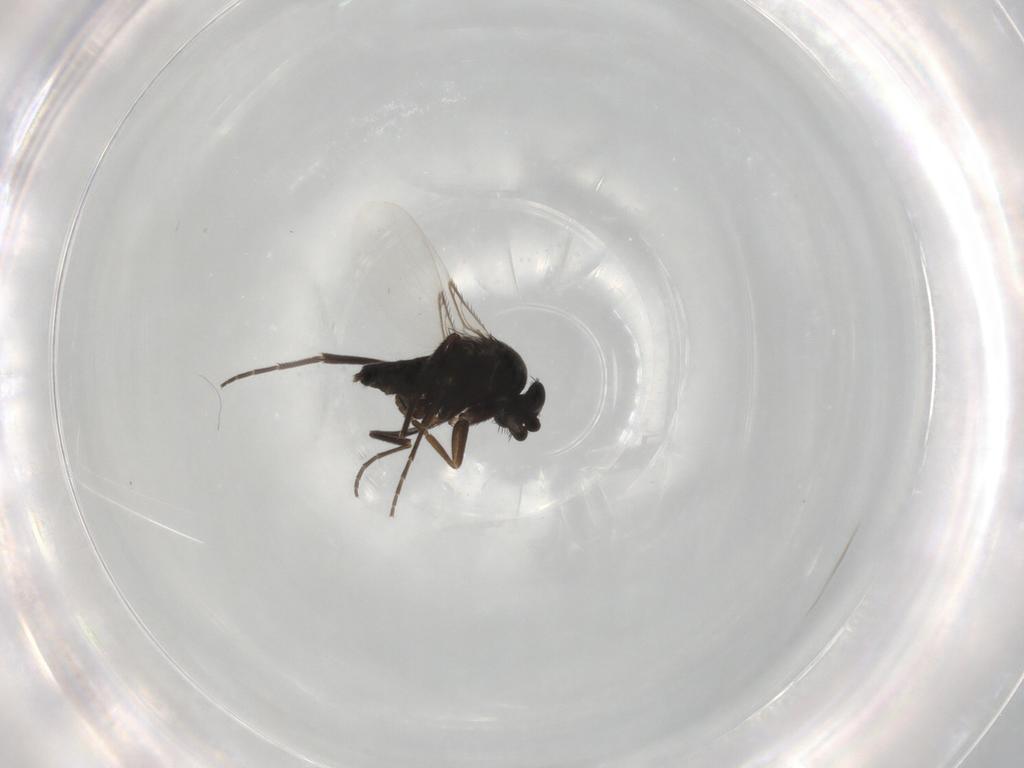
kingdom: Animalia
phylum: Arthropoda
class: Insecta
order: Diptera
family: Phoridae
